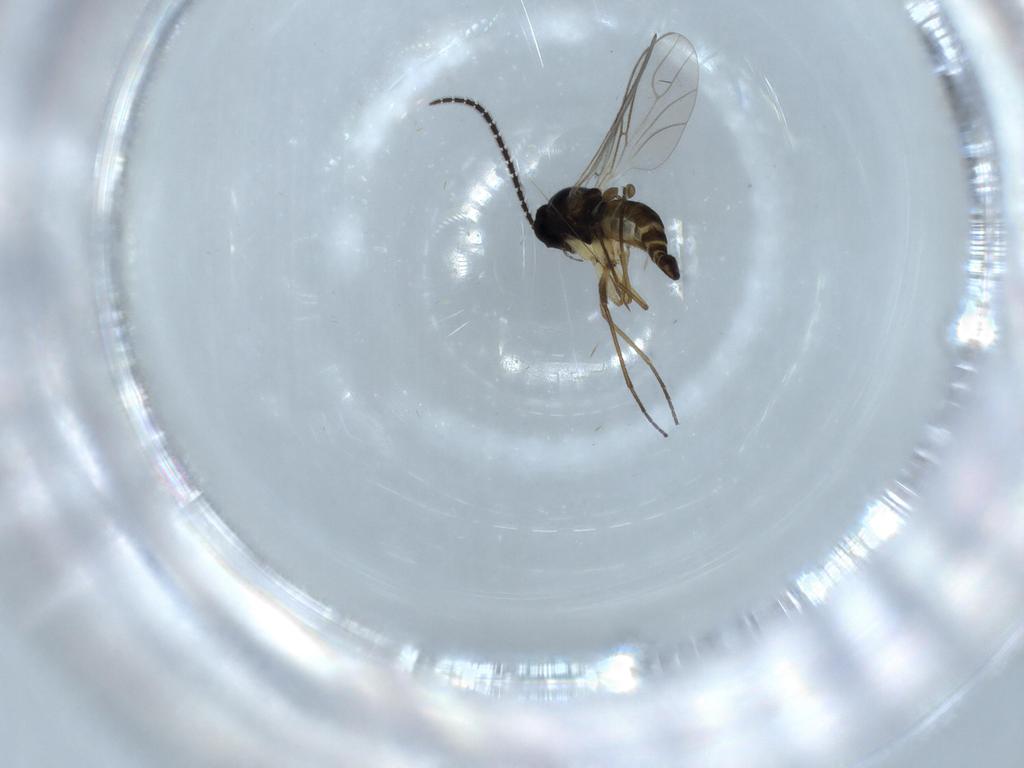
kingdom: Animalia
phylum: Arthropoda
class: Insecta
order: Diptera
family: Sciaridae
